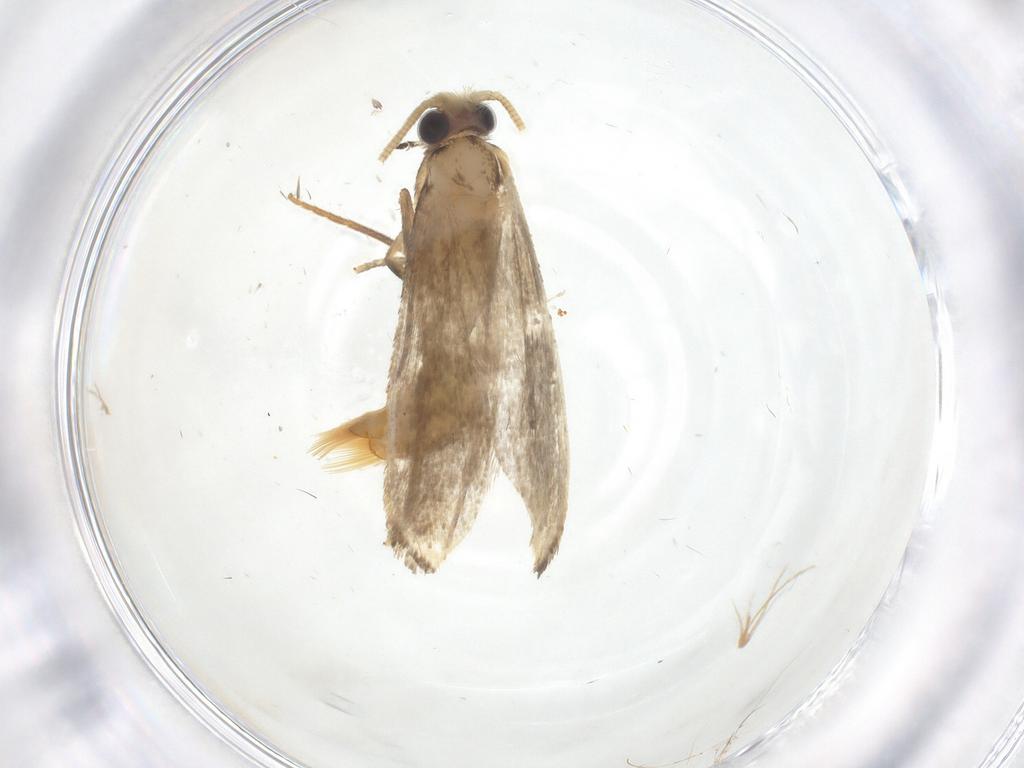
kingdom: Animalia
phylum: Arthropoda
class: Insecta
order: Lepidoptera
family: Tineidae
